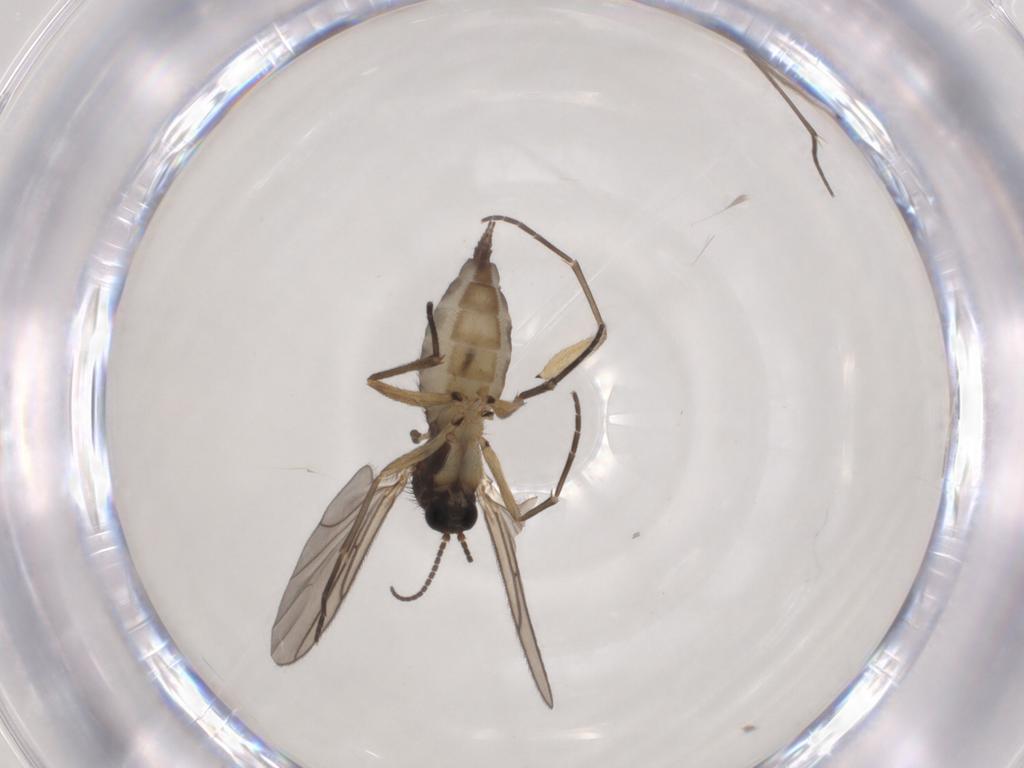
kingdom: Animalia
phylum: Arthropoda
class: Insecta
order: Diptera
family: Sciaridae
